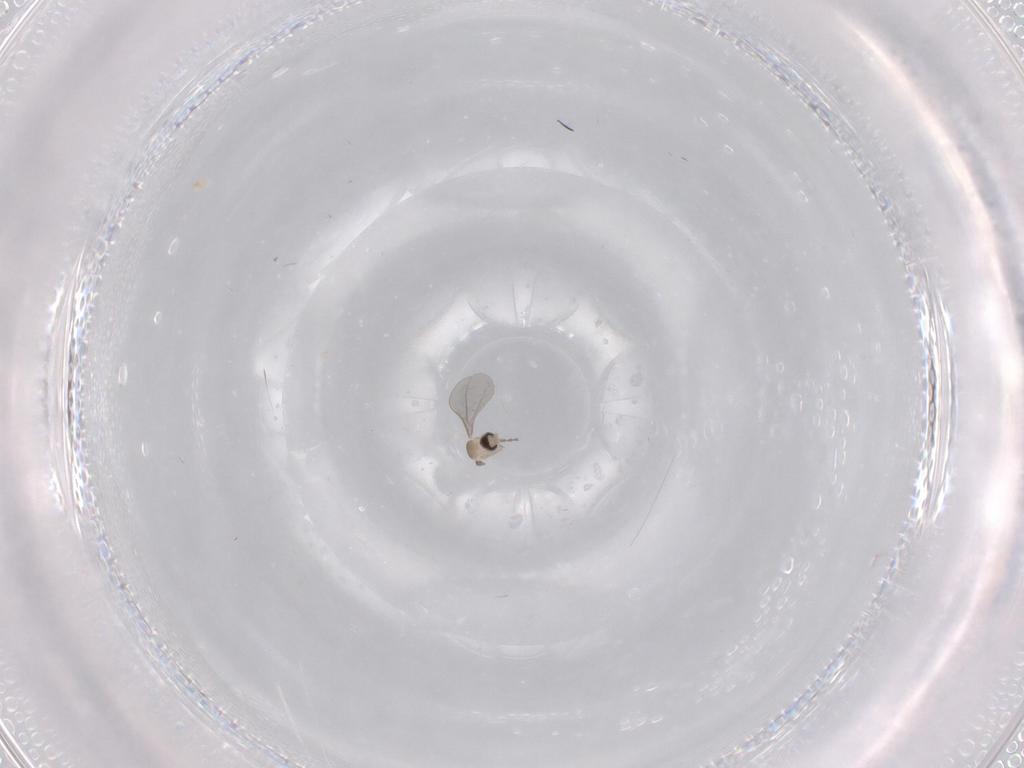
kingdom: Animalia
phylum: Arthropoda
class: Insecta
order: Diptera
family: Cecidomyiidae
